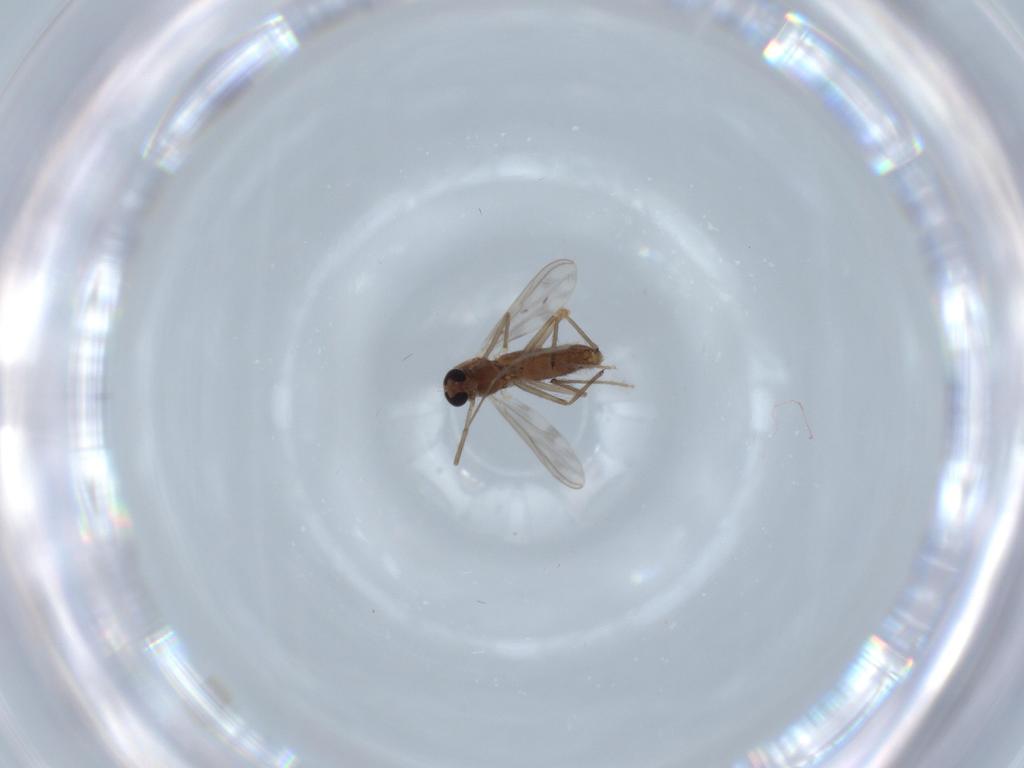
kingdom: Animalia
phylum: Arthropoda
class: Insecta
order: Diptera
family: Chironomidae
